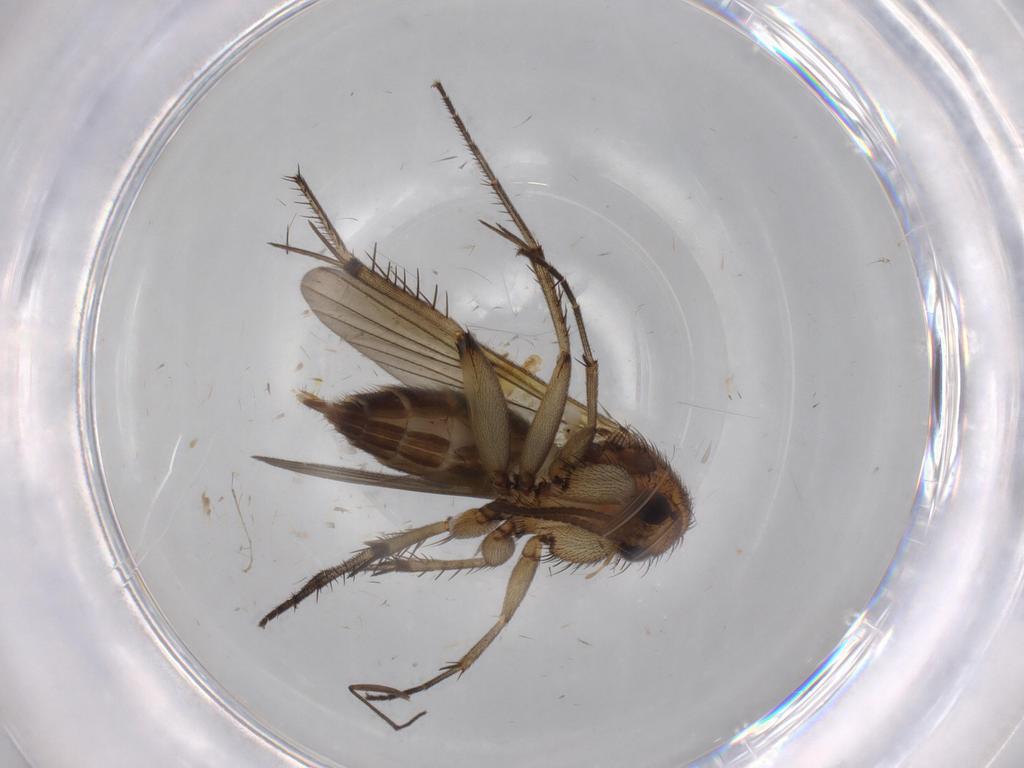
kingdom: Animalia
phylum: Arthropoda
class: Insecta
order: Diptera
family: Hybotidae
